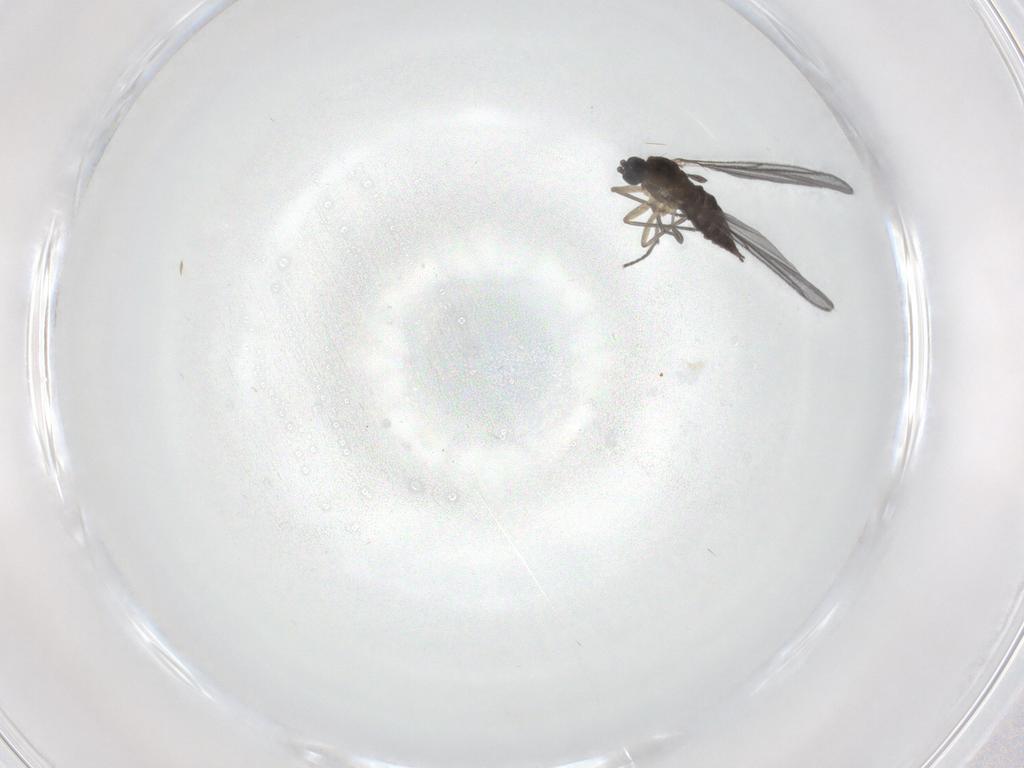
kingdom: Animalia
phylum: Arthropoda
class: Insecta
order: Diptera
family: Sciaridae
